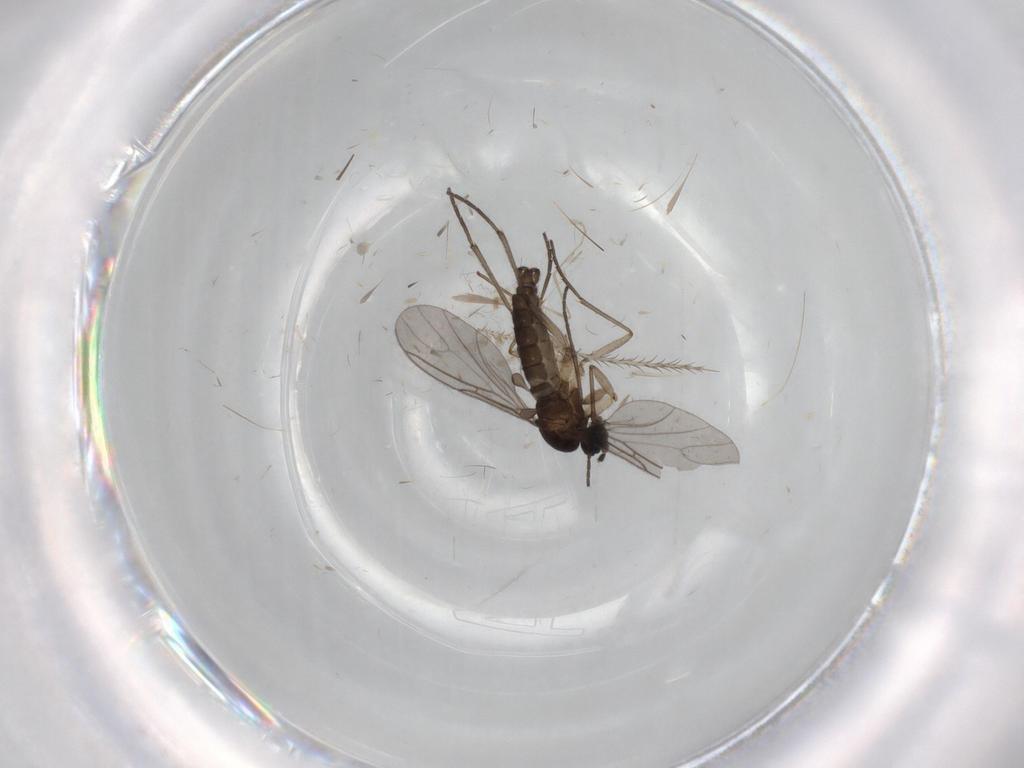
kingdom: Animalia
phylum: Arthropoda
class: Insecta
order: Diptera
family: Sciaridae
